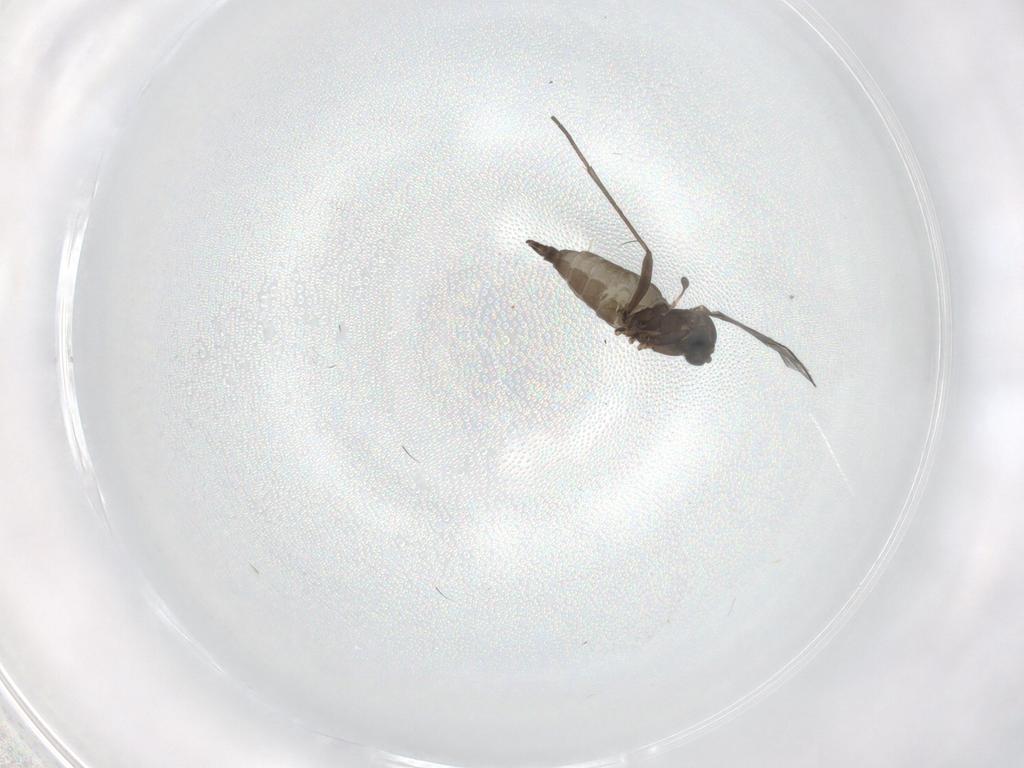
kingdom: Animalia
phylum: Arthropoda
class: Insecta
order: Diptera
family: Sciaridae
